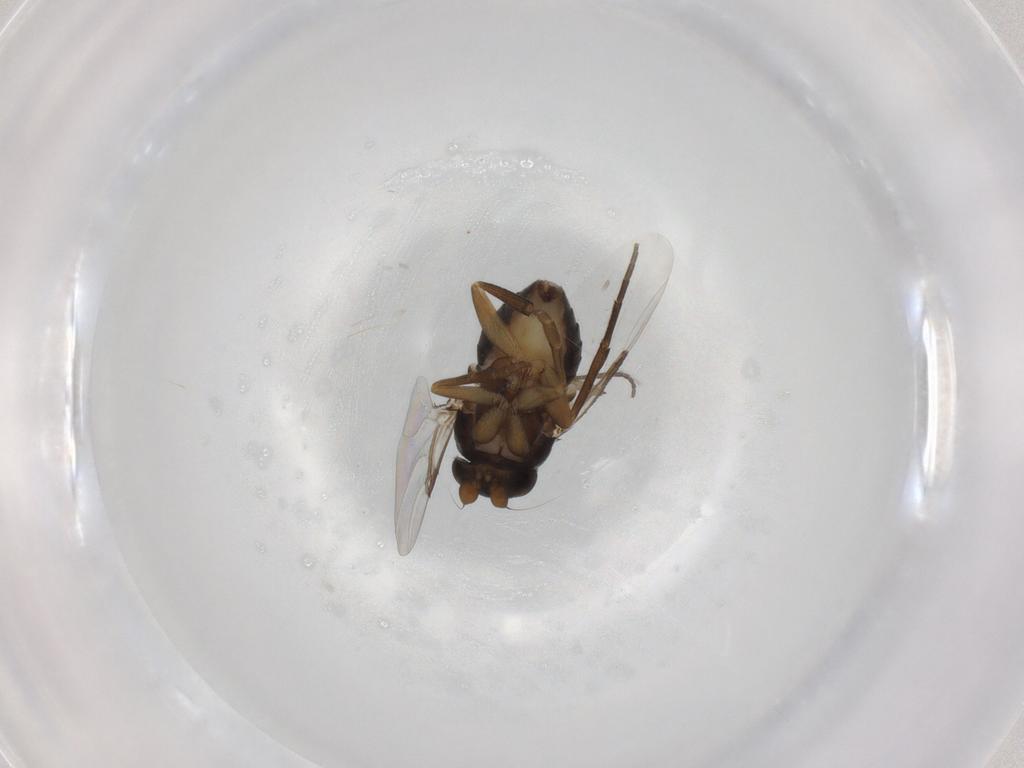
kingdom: Animalia
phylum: Arthropoda
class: Insecta
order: Diptera
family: Phoridae
